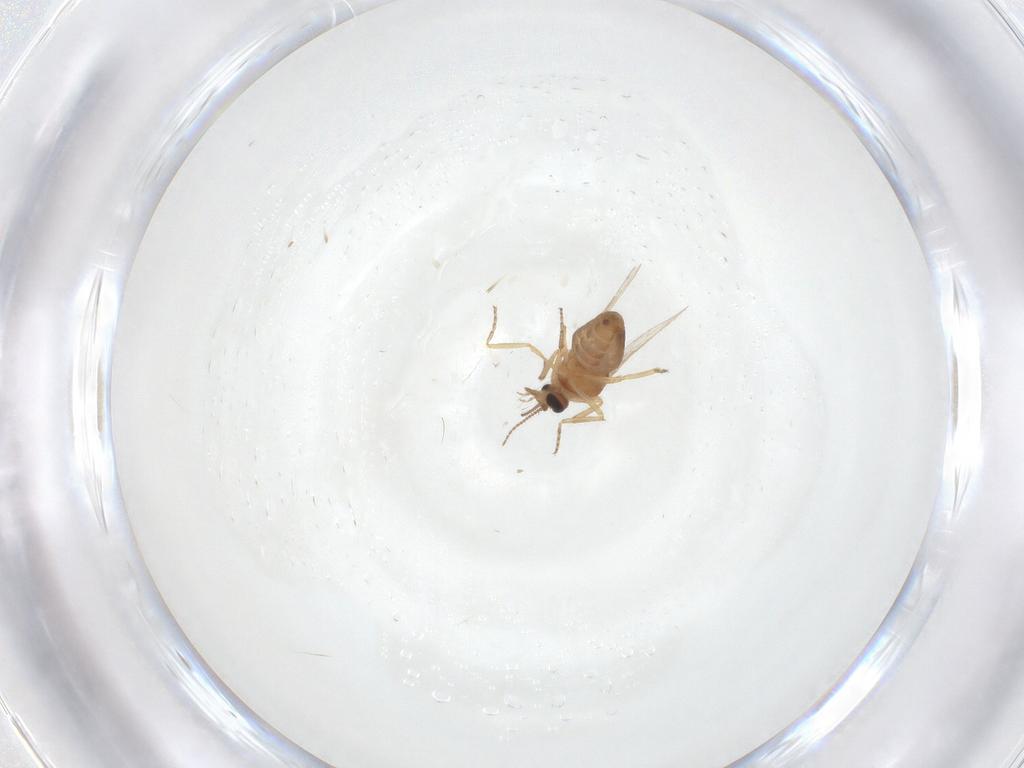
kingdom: Animalia
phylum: Arthropoda
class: Insecta
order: Diptera
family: Ceratopogonidae
